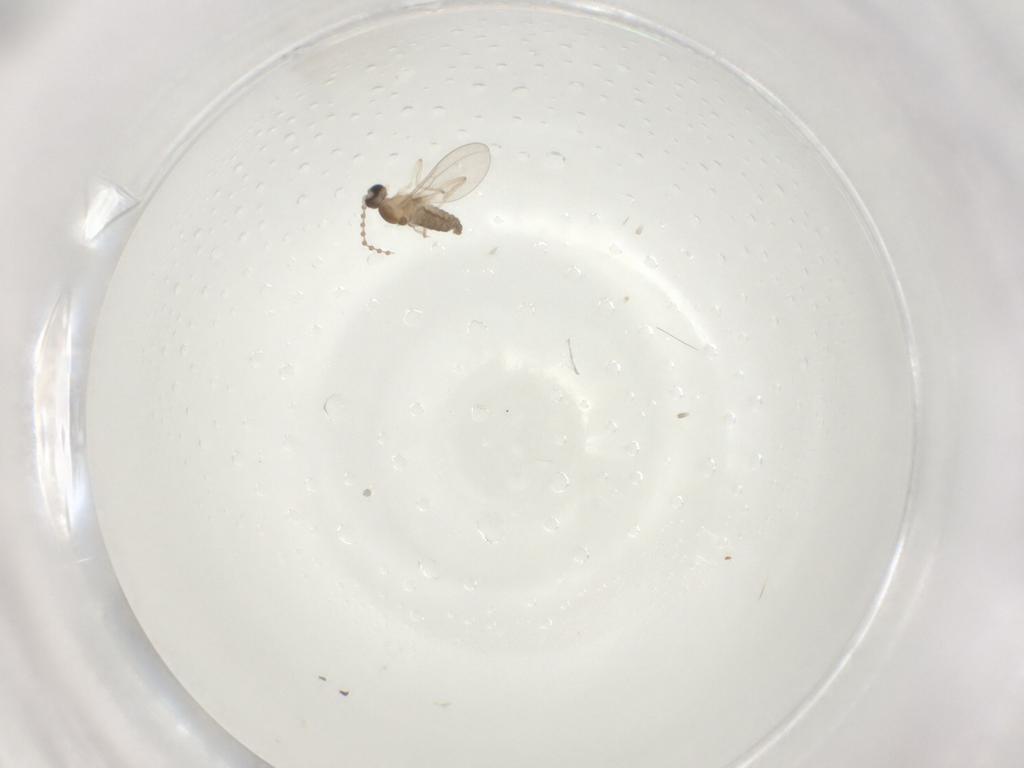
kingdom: Animalia
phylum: Arthropoda
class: Insecta
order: Diptera
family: Cecidomyiidae
